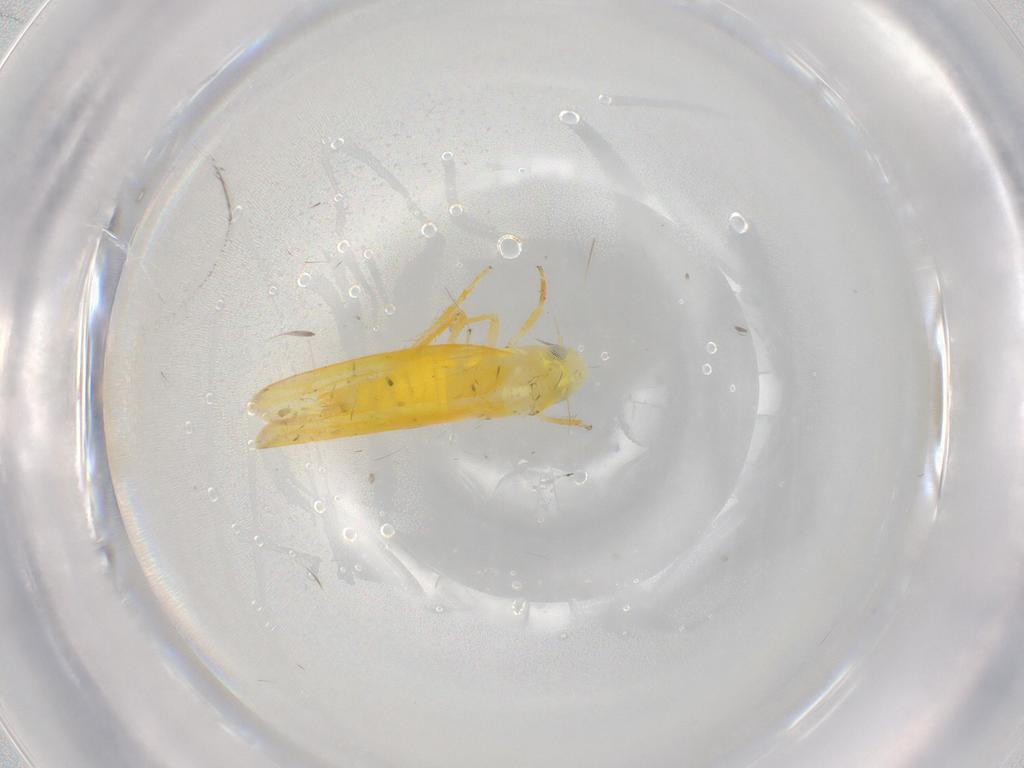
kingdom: Animalia
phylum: Arthropoda
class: Insecta
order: Hemiptera
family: Cicadellidae
